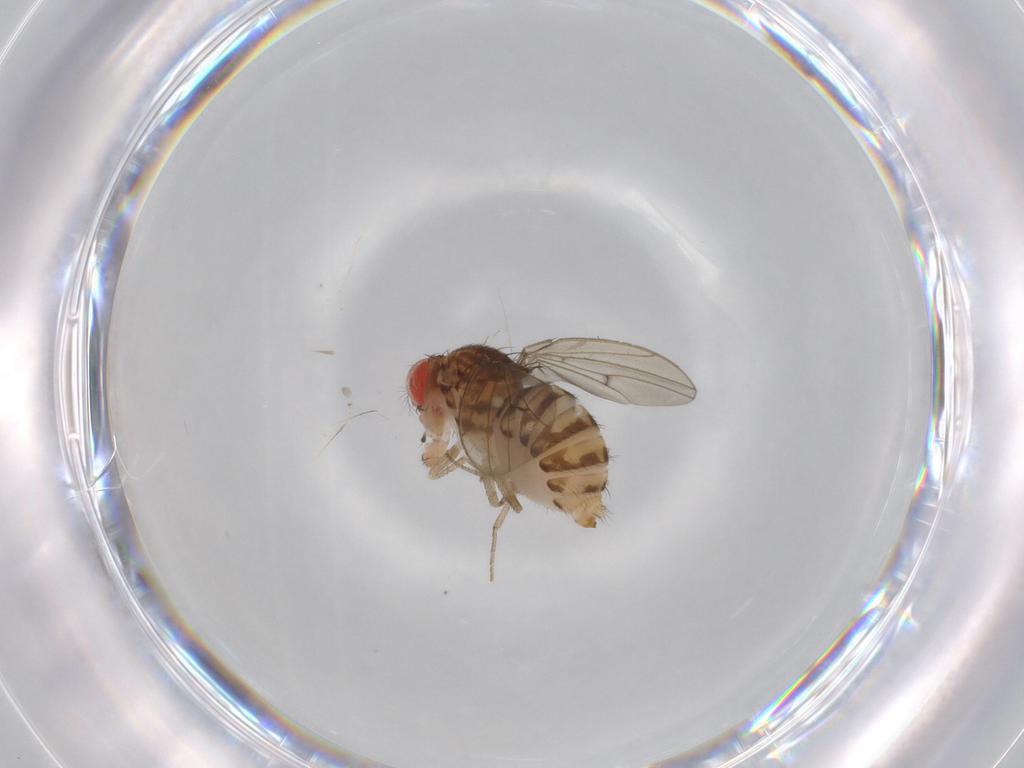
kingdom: Animalia
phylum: Arthropoda
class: Insecta
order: Diptera
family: Drosophilidae
